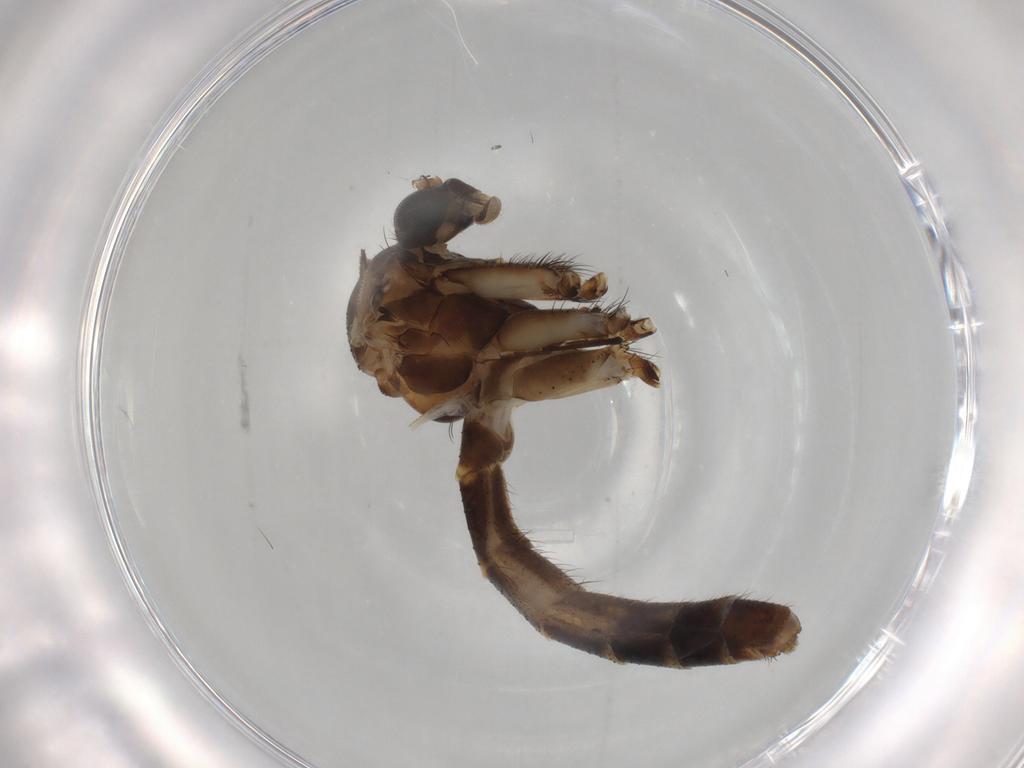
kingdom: Animalia
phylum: Arthropoda
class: Insecta
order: Diptera
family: Mycetophilidae
